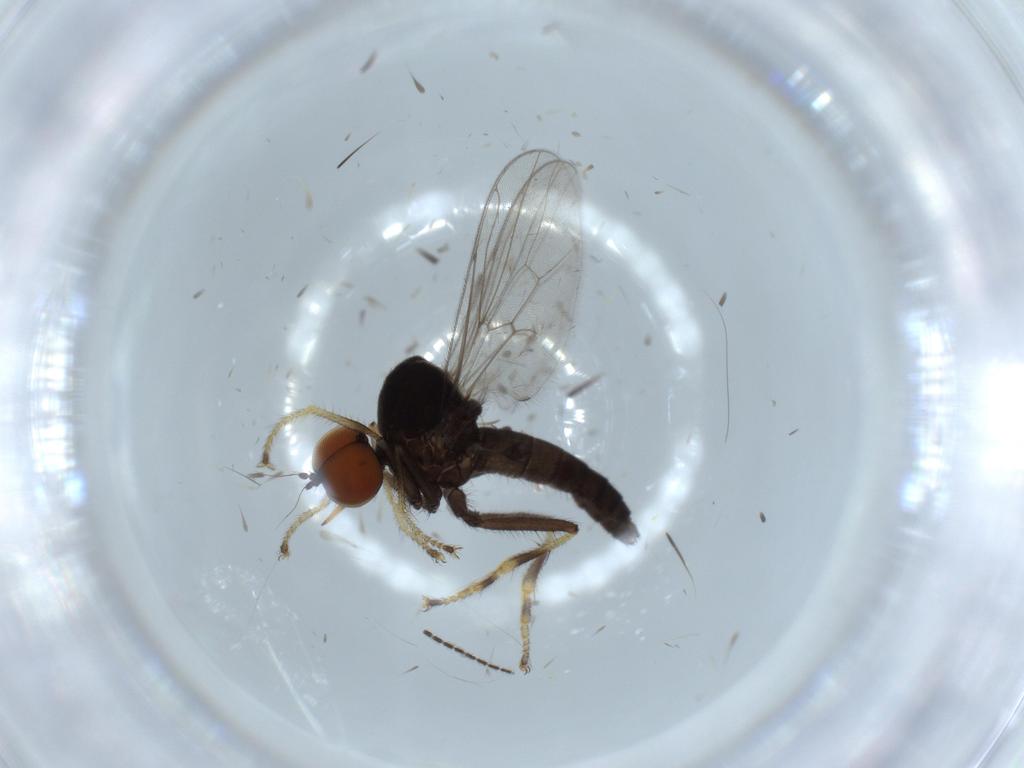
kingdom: Animalia
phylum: Arthropoda
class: Insecta
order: Diptera
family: Hybotidae
